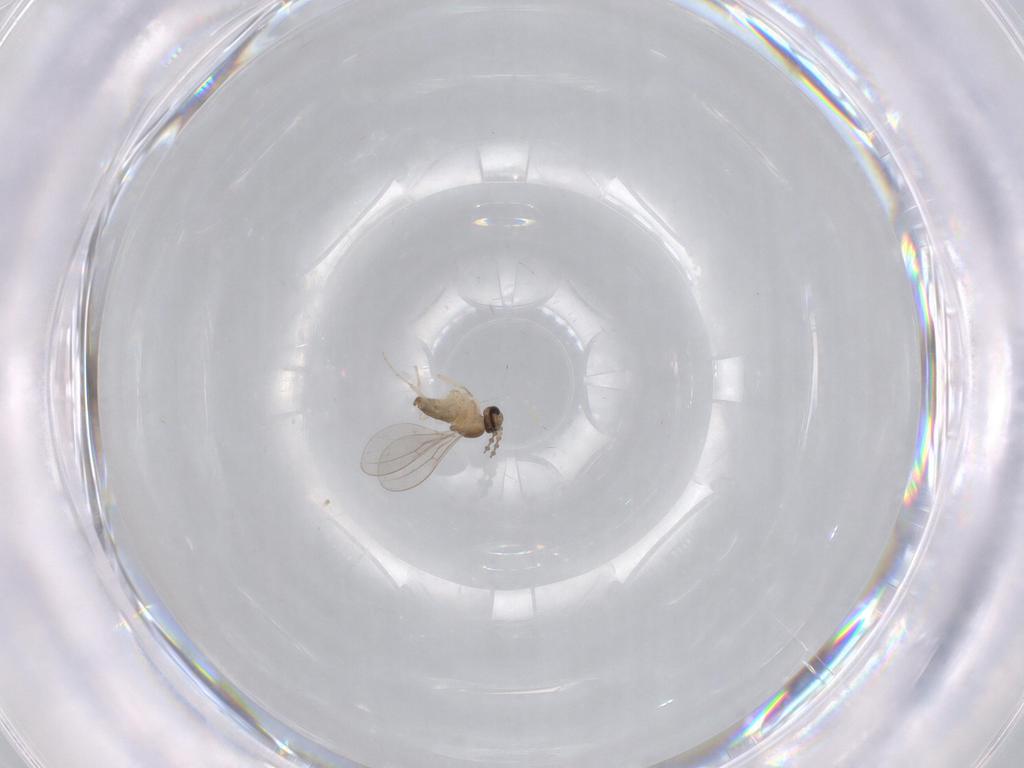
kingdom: Animalia
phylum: Arthropoda
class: Insecta
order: Diptera
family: Cecidomyiidae
